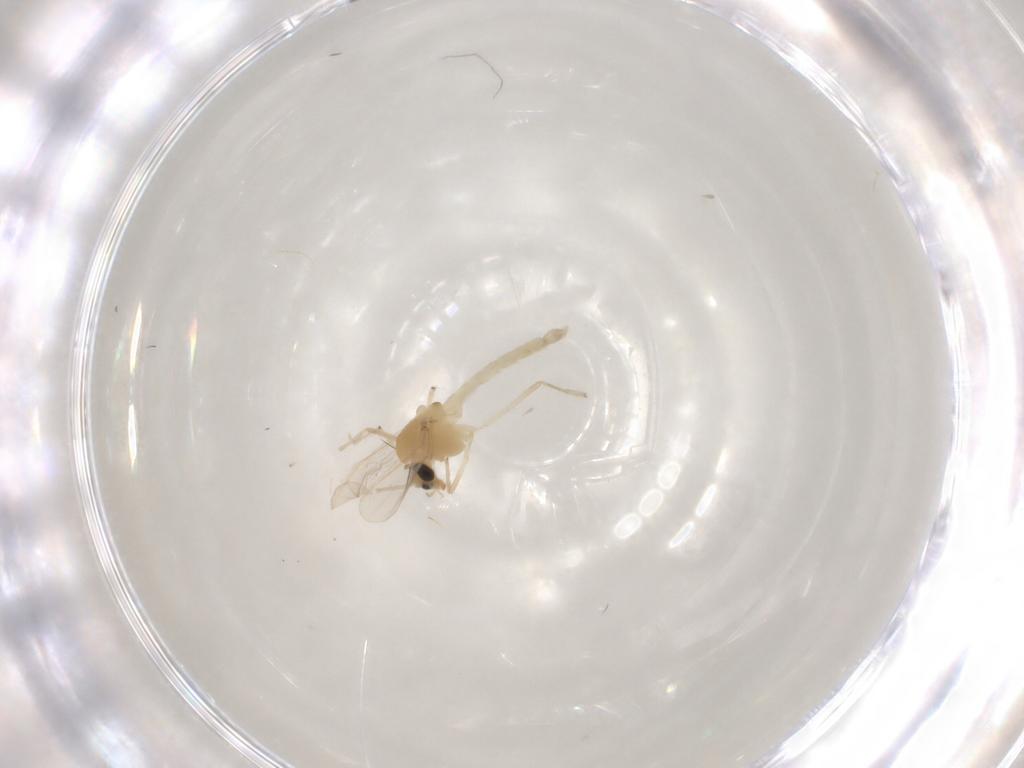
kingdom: Animalia
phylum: Arthropoda
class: Insecta
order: Diptera
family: Chironomidae
